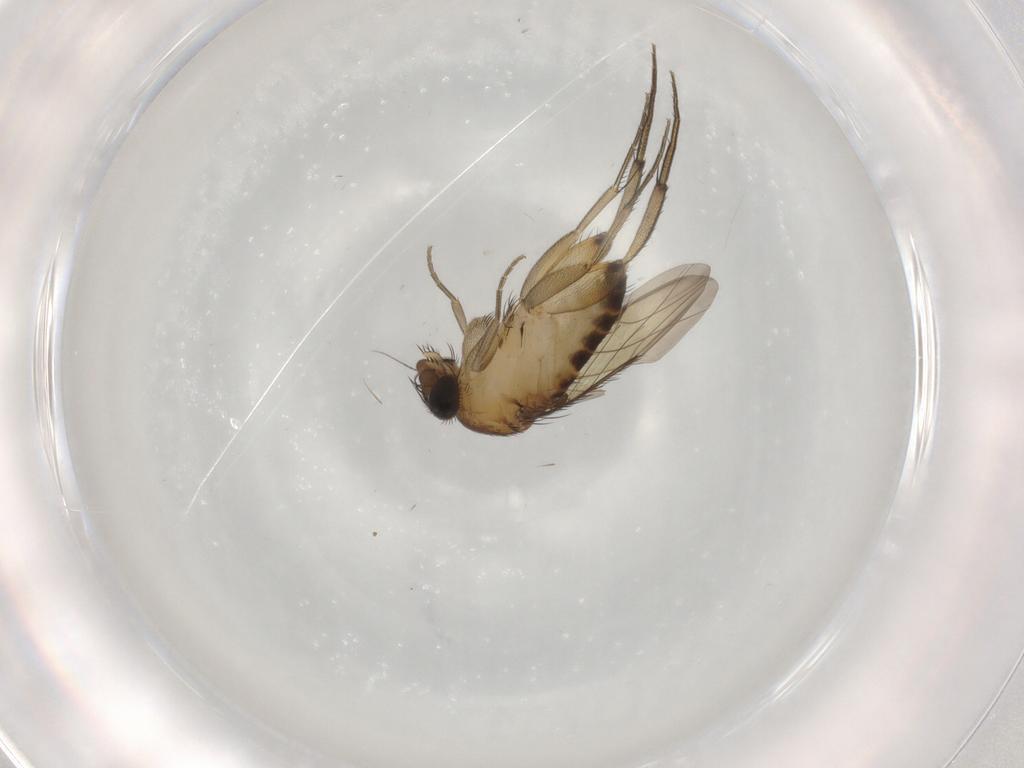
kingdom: Animalia
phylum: Arthropoda
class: Insecta
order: Diptera
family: Phoridae
